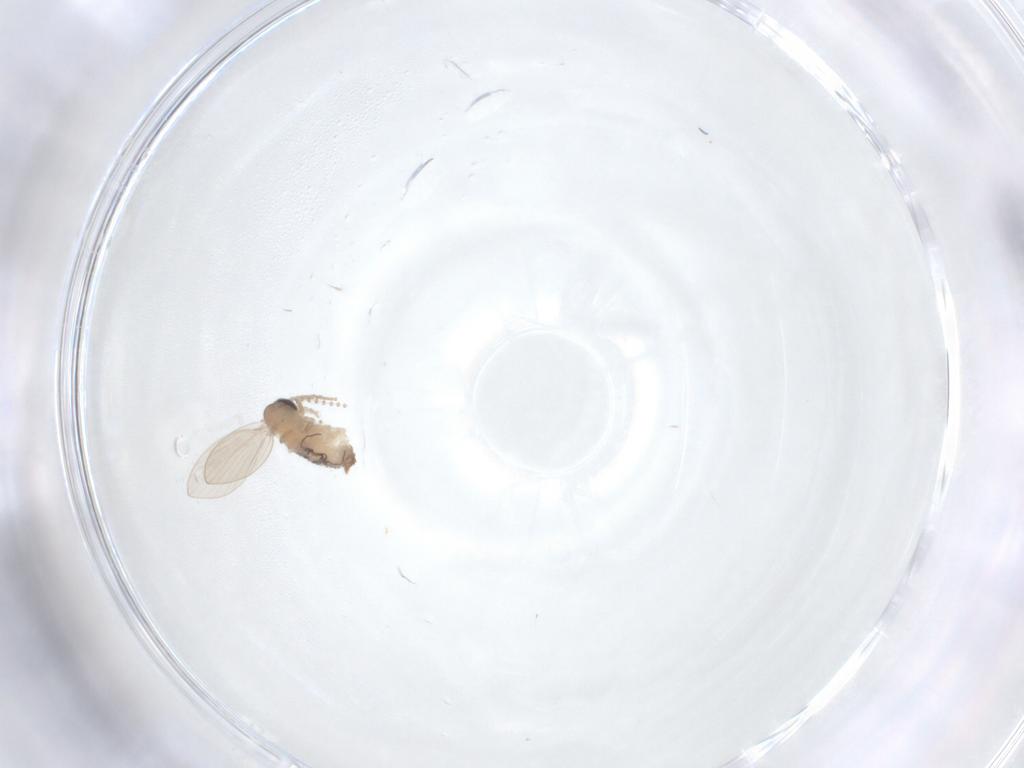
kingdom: Animalia
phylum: Arthropoda
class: Insecta
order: Diptera
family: Psychodidae
